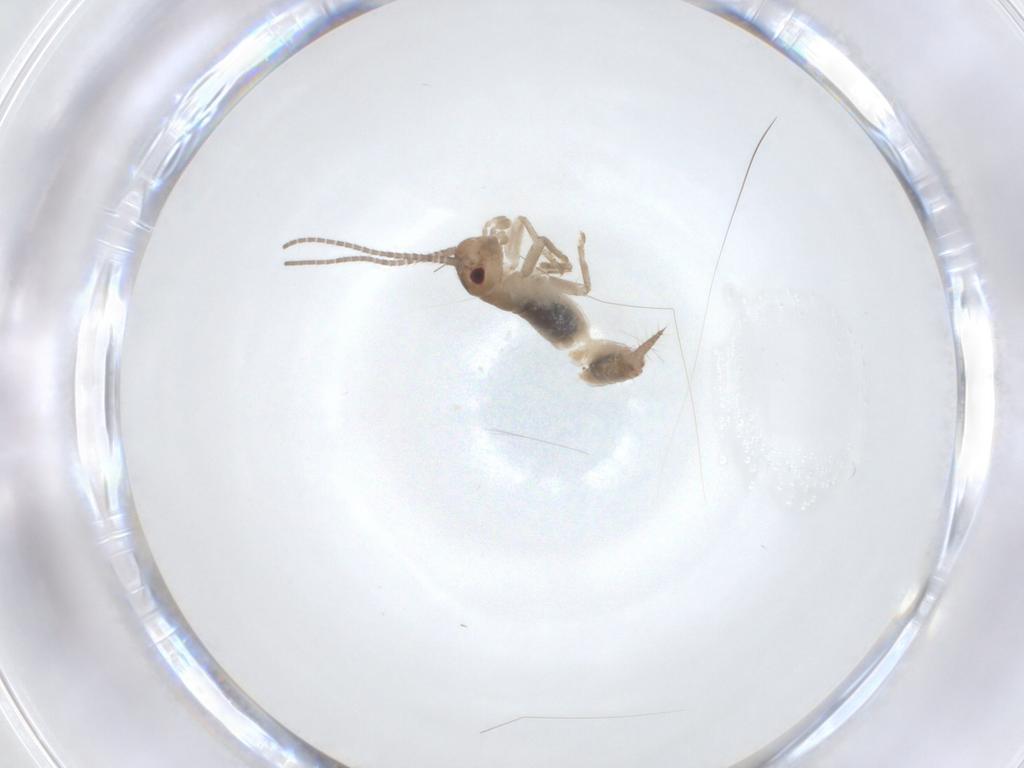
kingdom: Animalia
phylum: Arthropoda
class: Insecta
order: Orthoptera
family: Gryllidae
